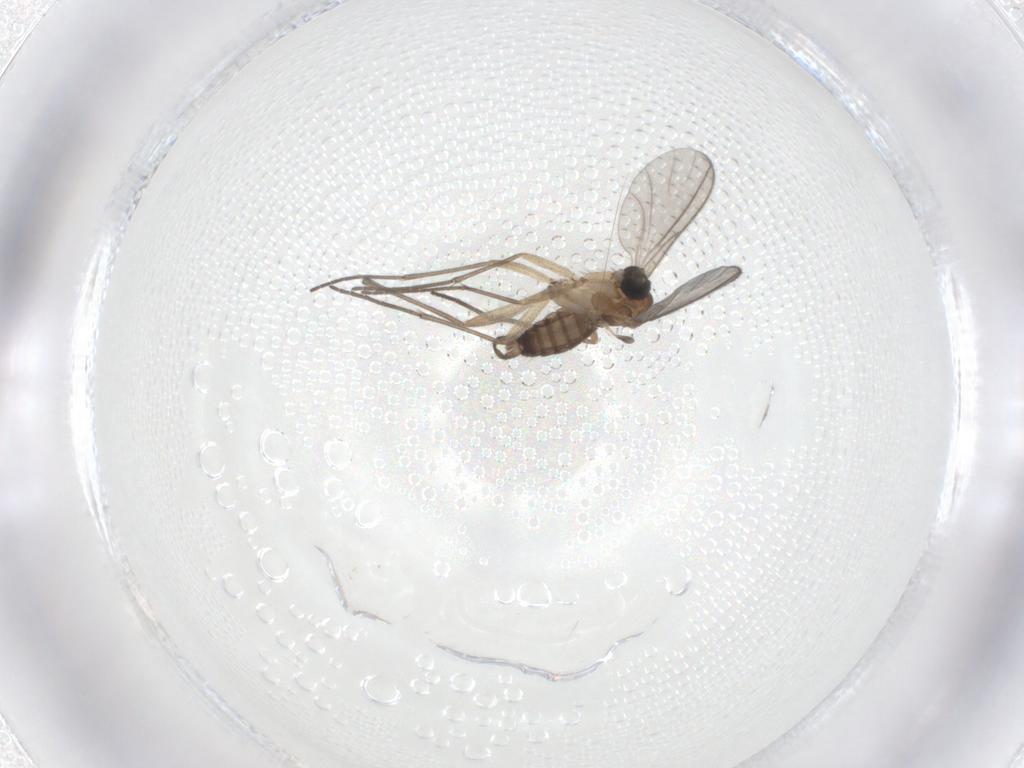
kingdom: Animalia
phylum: Arthropoda
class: Insecta
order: Diptera
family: Sciaridae
